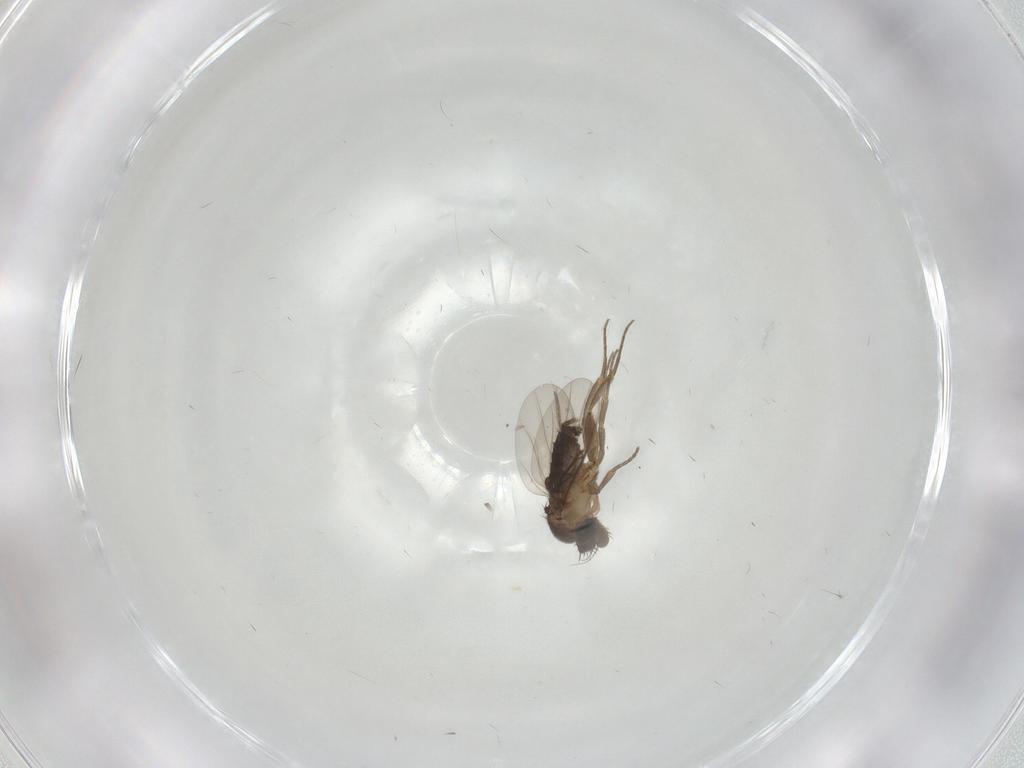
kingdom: Animalia
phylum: Arthropoda
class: Insecta
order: Diptera
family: Phoridae
